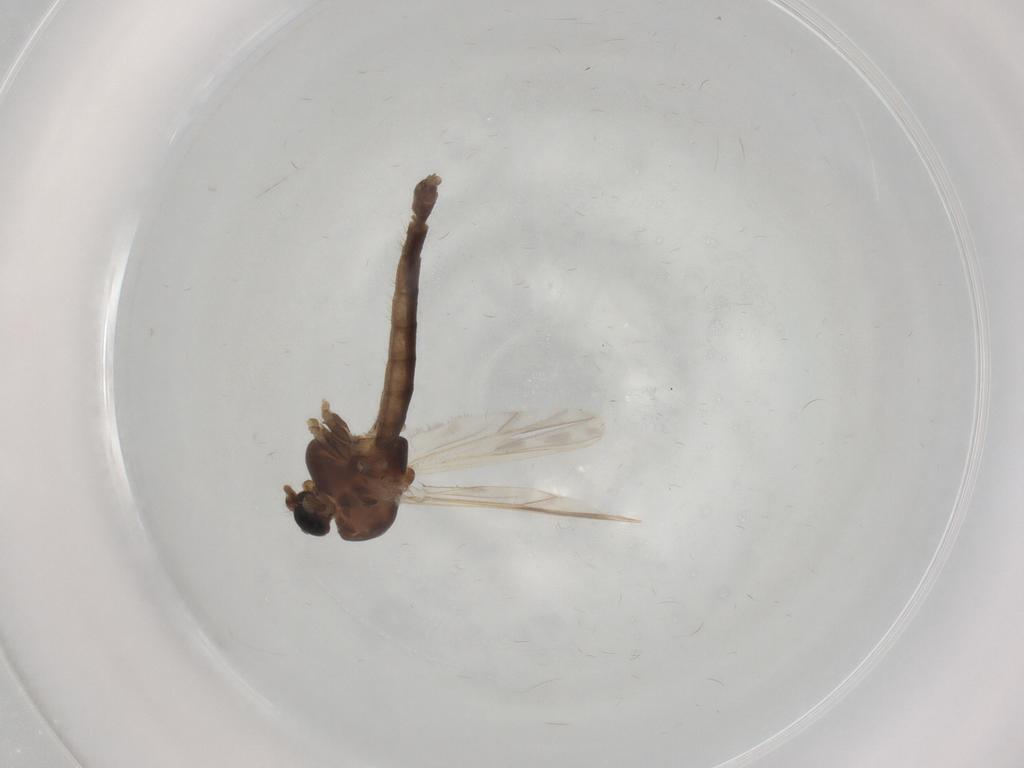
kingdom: Animalia
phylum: Arthropoda
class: Insecta
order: Diptera
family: Chironomidae
